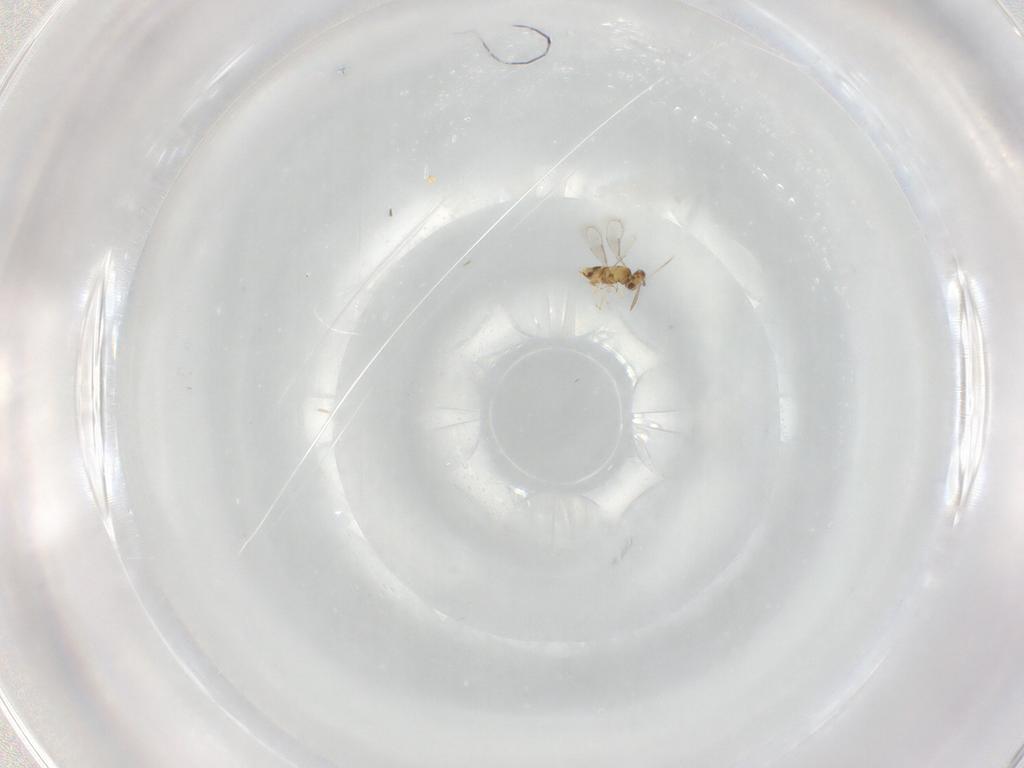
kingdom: Animalia
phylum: Arthropoda
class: Insecta
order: Hymenoptera
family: Aphelinidae
